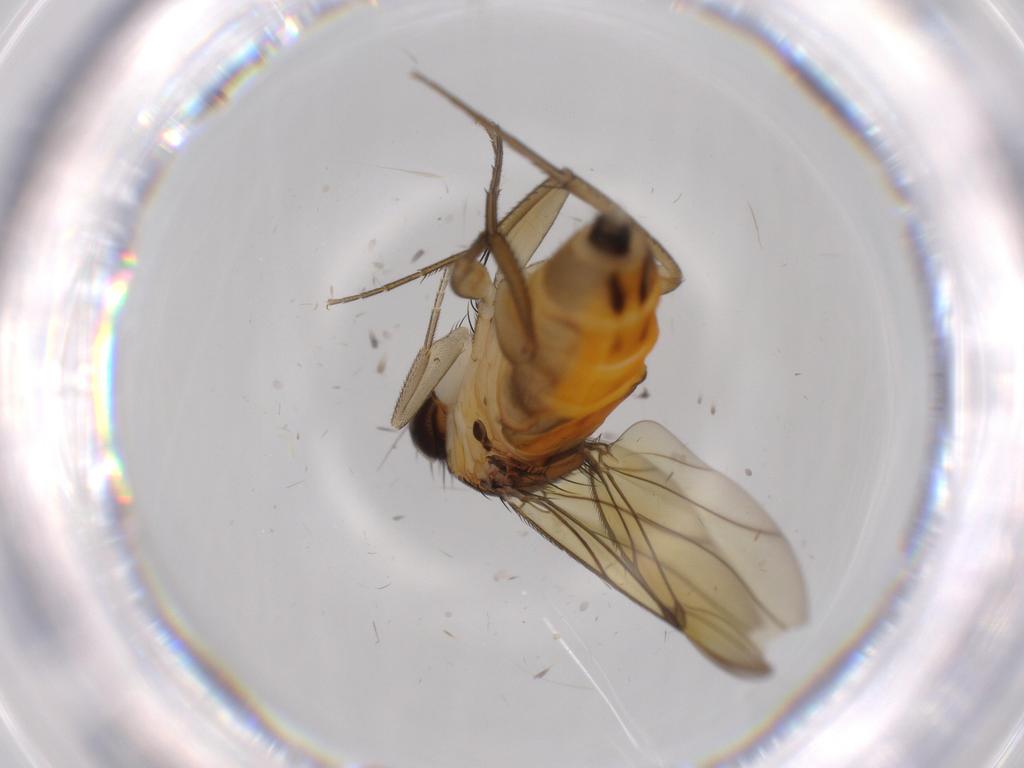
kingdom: Animalia
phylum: Arthropoda
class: Insecta
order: Diptera
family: Phoridae
